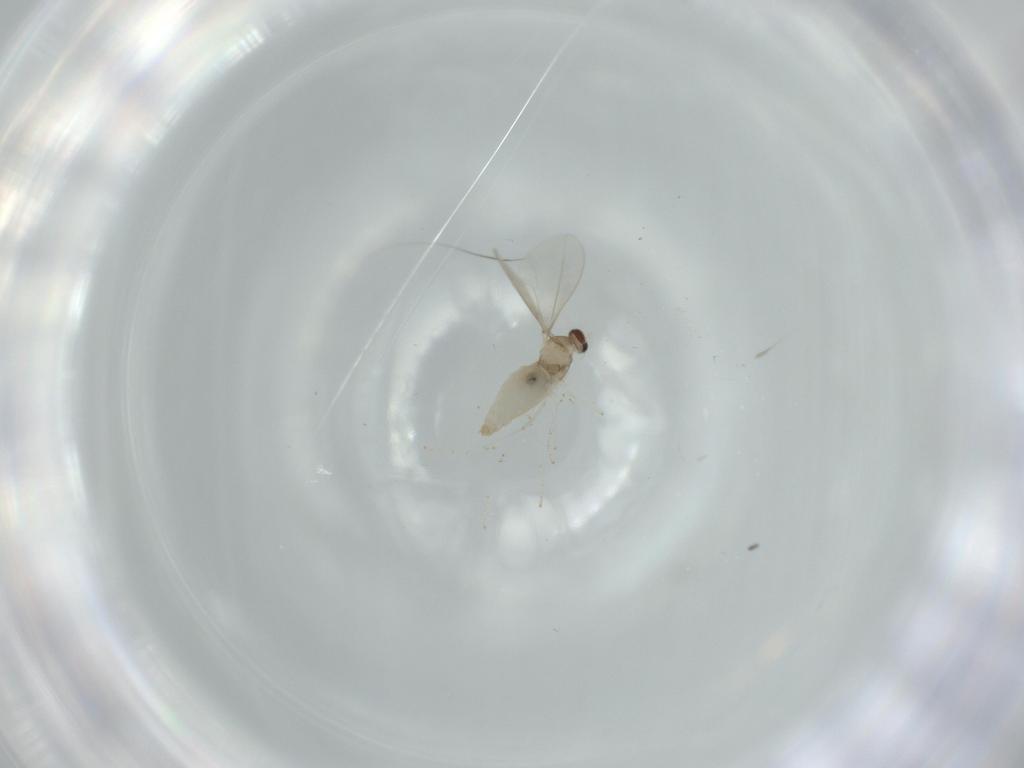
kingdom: Animalia
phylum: Arthropoda
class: Insecta
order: Diptera
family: Cecidomyiidae
